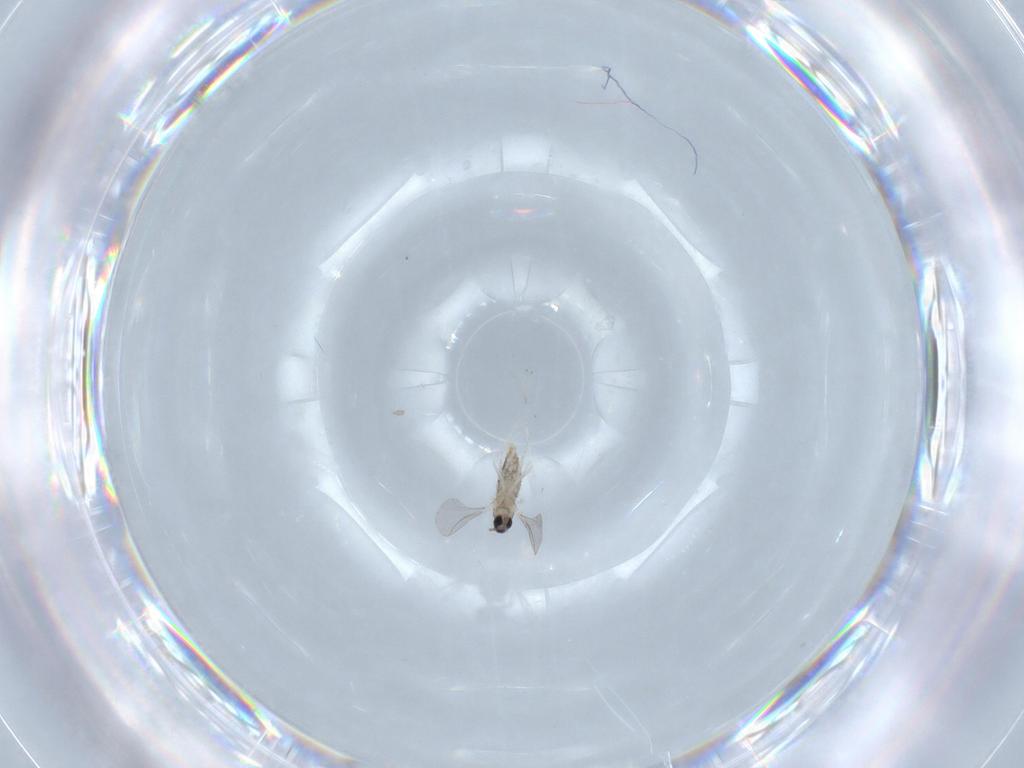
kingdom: Animalia
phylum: Arthropoda
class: Insecta
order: Diptera
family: Cecidomyiidae
